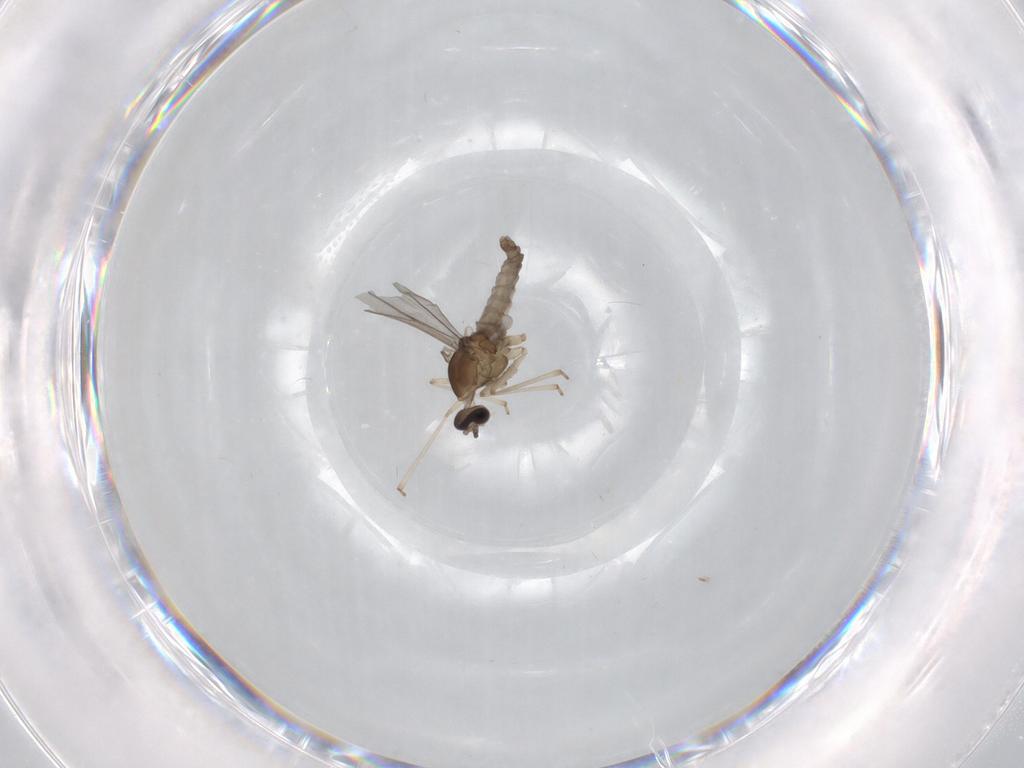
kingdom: Animalia
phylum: Arthropoda
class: Insecta
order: Diptera
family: Cecidomyiidae
